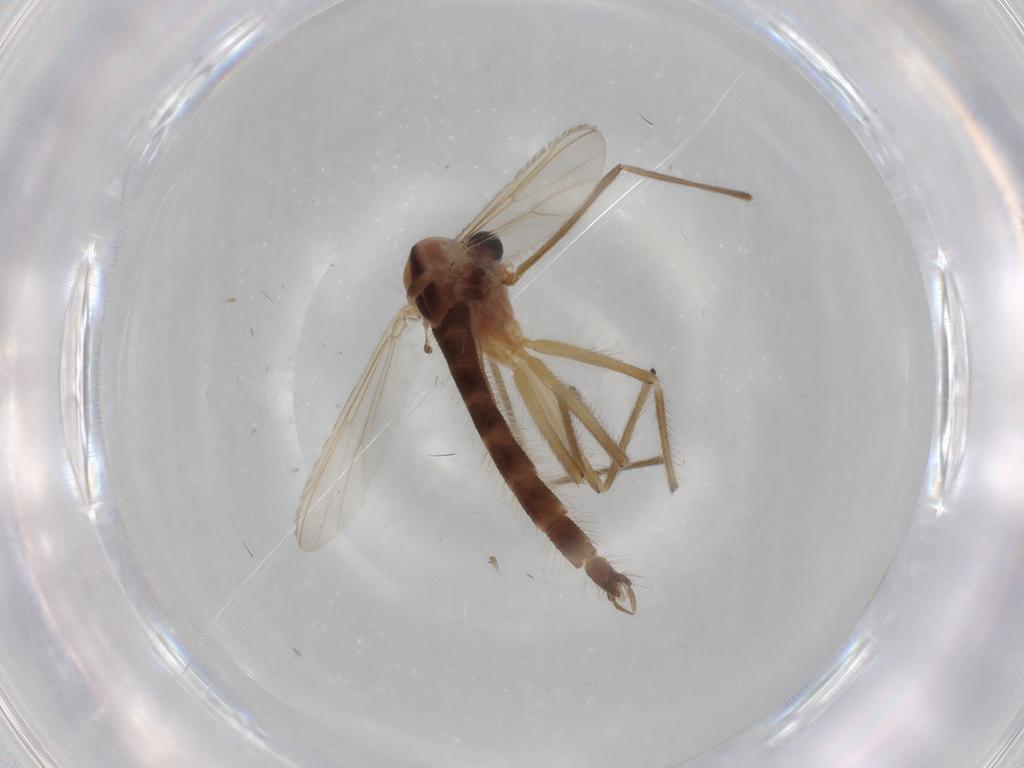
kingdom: Animalia
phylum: Arthropoda
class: Insecta
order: Diptera
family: Chironomidae
